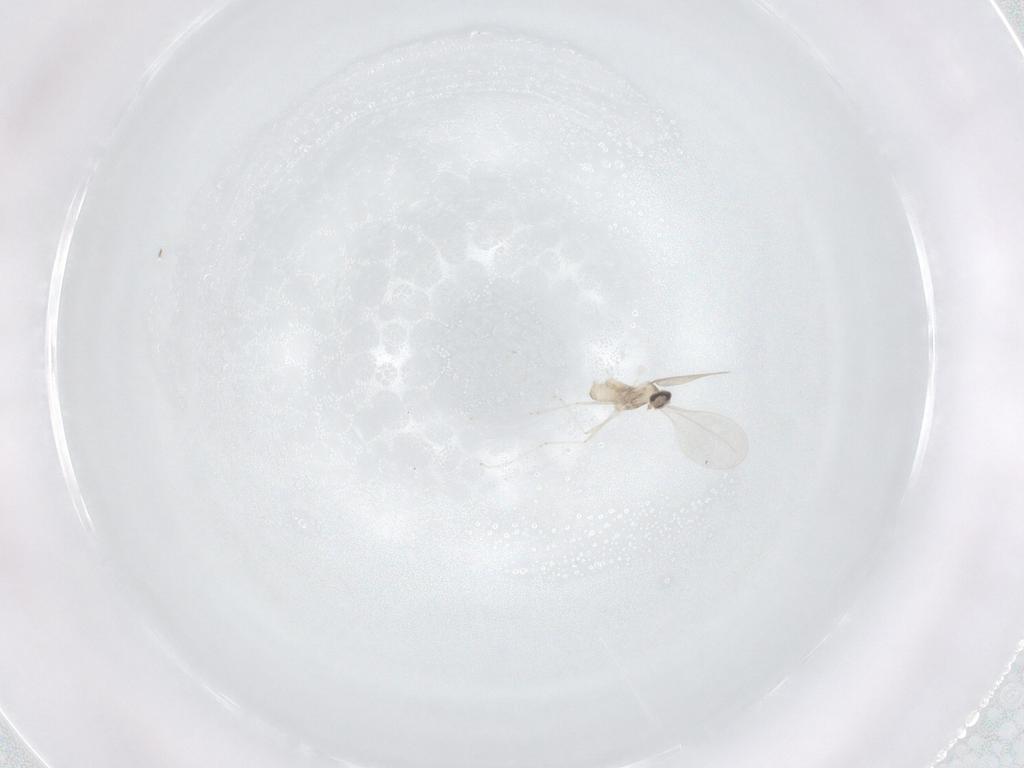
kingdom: Animalia
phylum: Arthropoda
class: Insecta
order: Diptera
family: Cecidomyiidae
